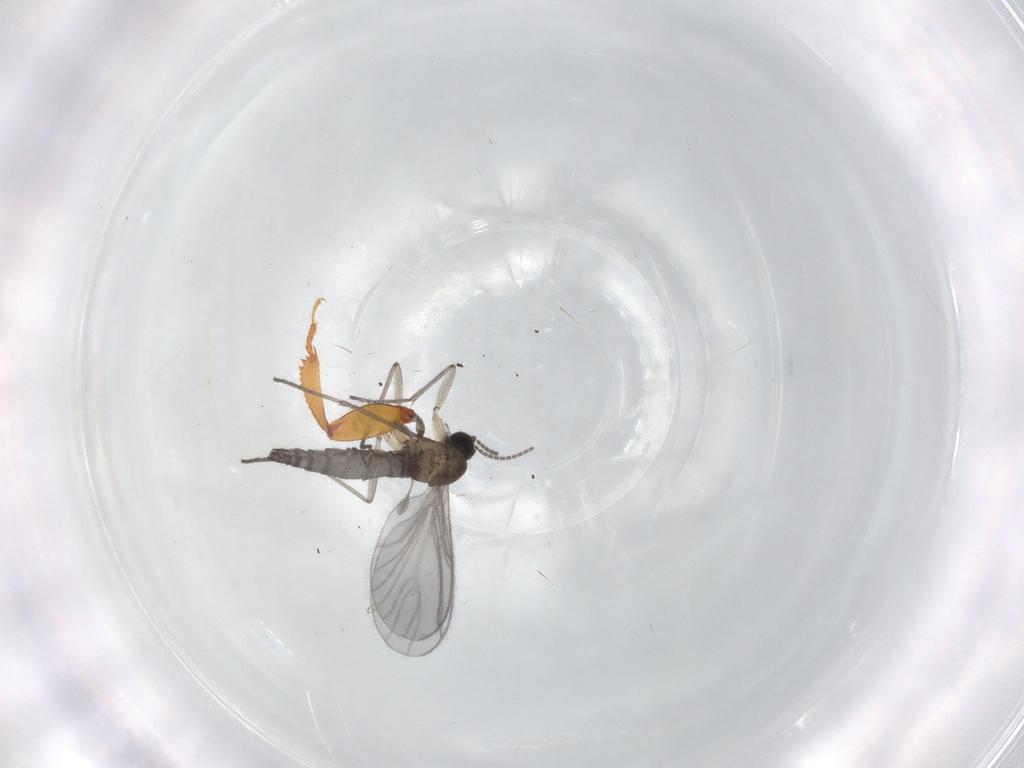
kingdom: Animalia
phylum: Arthropoda
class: Insecta
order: Diptera
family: Sciaridae
